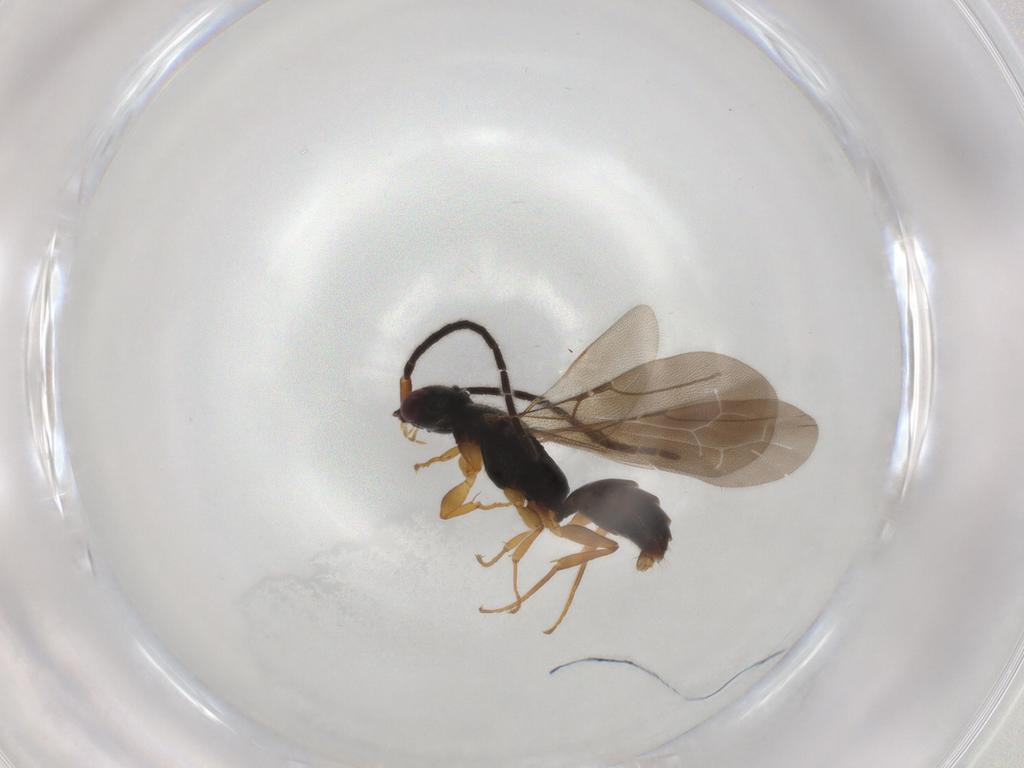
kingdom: Animalia
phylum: Arthropoda
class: Insecta
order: Hymenoptera
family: Bethylidae
